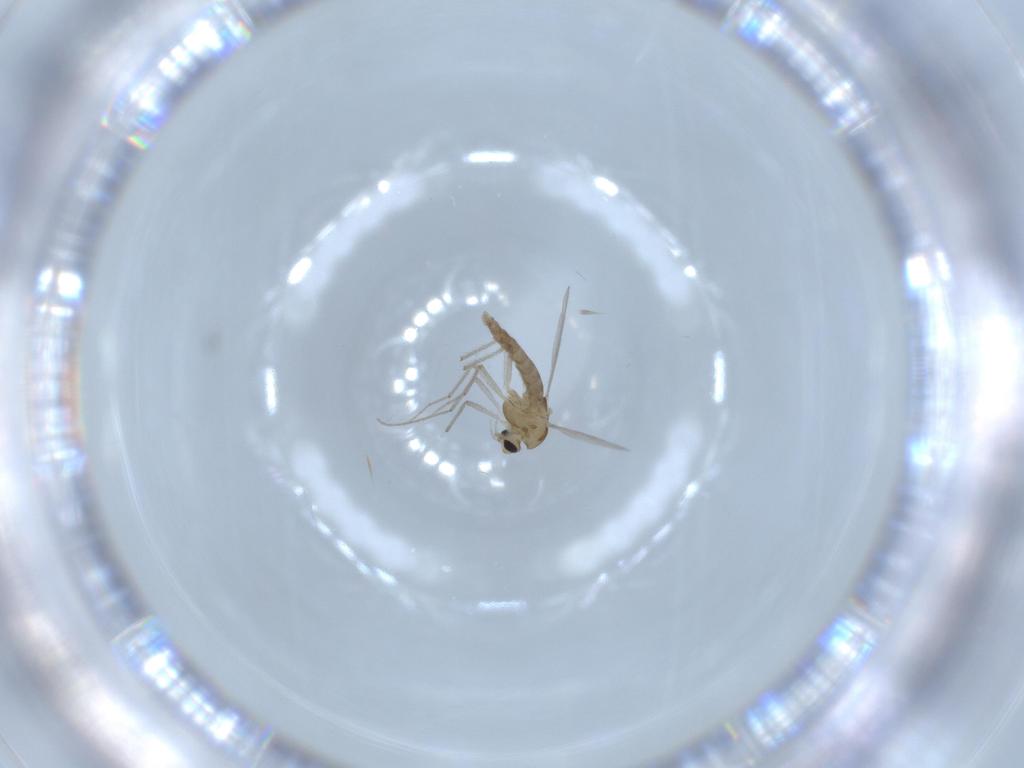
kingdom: Animalia
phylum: Arthropoda
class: Insecta
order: Diptera
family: Chironomidae
